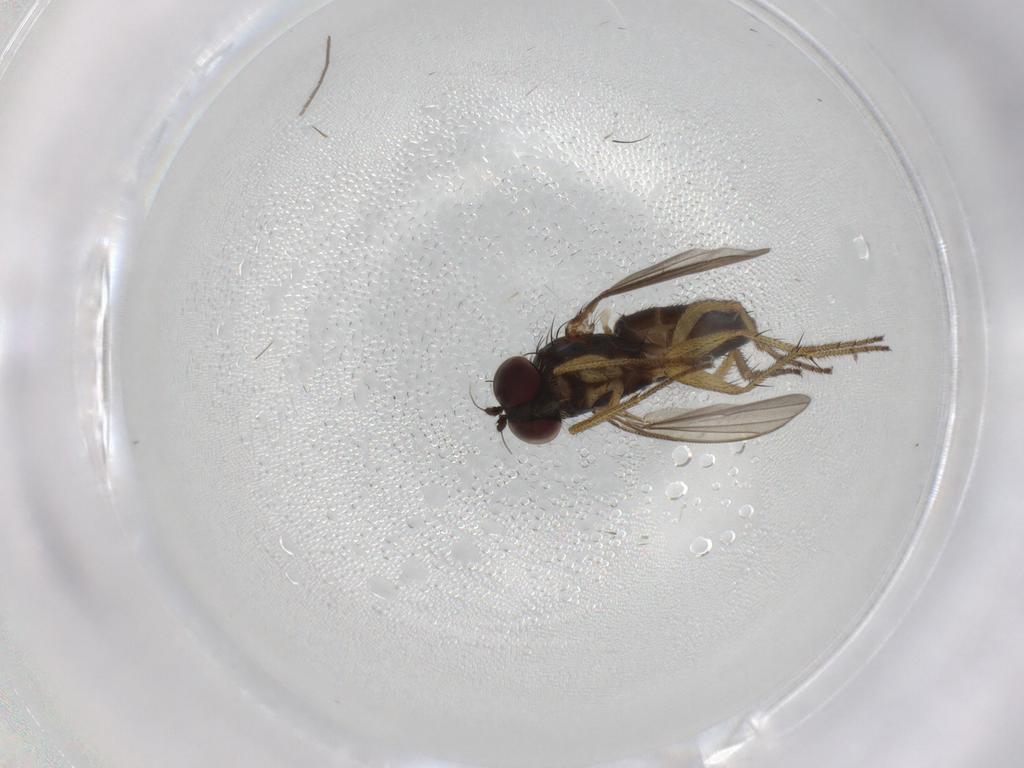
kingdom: Animalia
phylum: Arthropoda
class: Insecta
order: Diptera
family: Dolichopodidae
